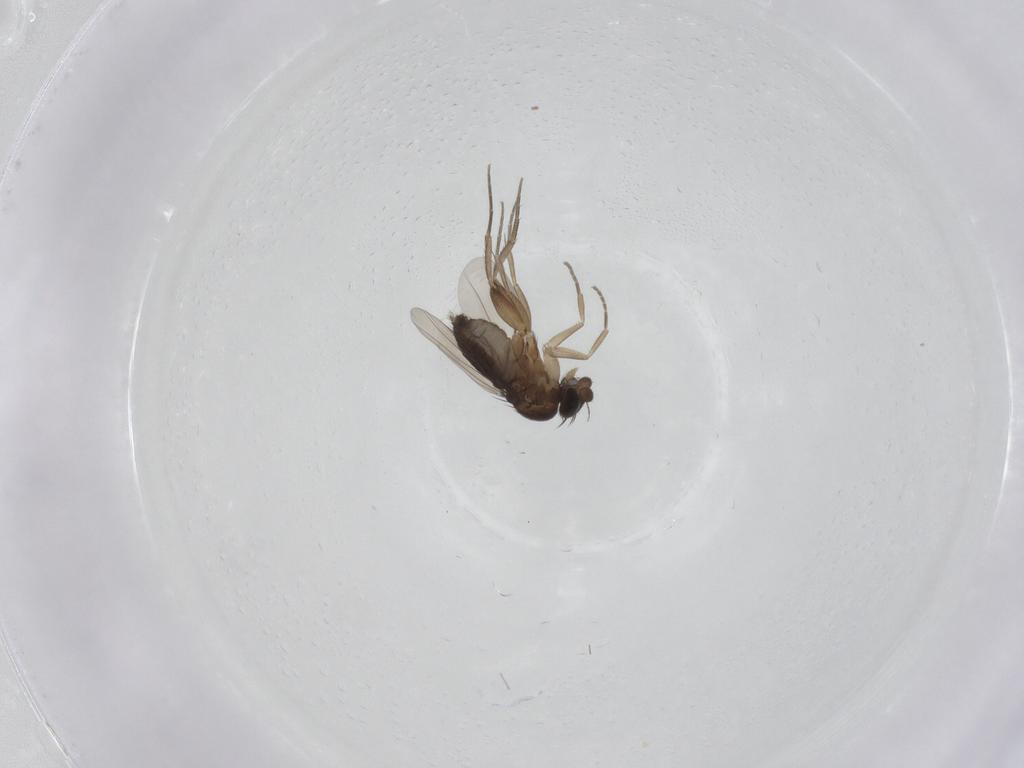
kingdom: Animalia
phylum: Arthropoda
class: Insecta
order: Diptera
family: Phoridae
